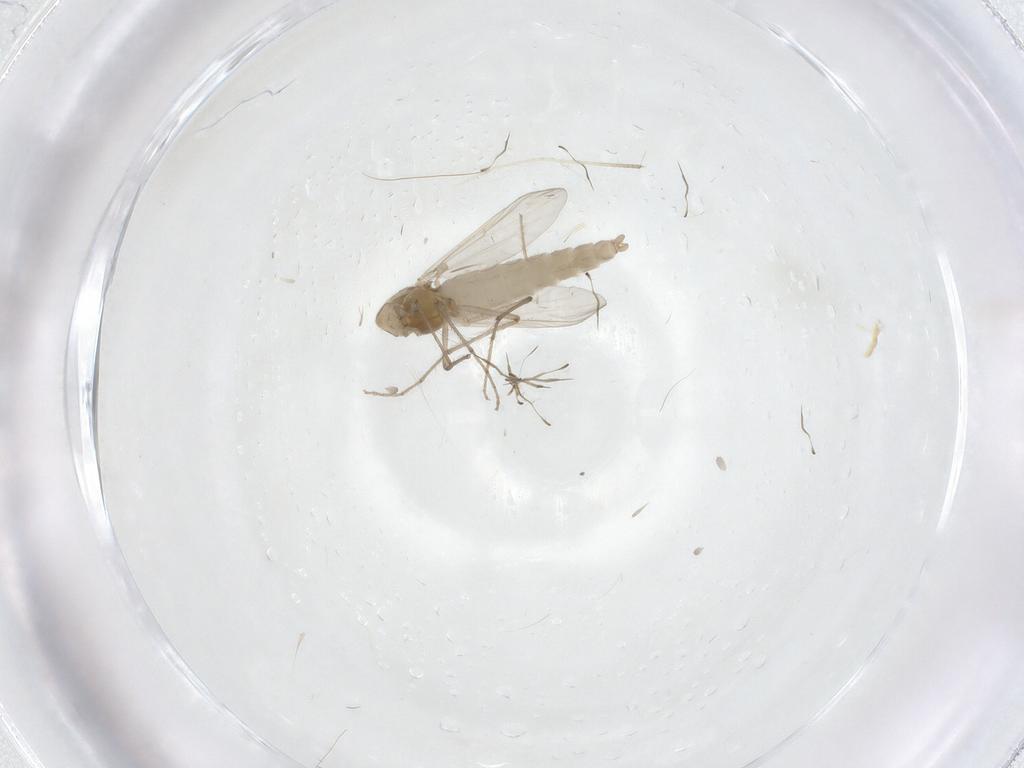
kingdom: Animalia
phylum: Arthropoda
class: Insecta
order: Diptera
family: Chironomidae
